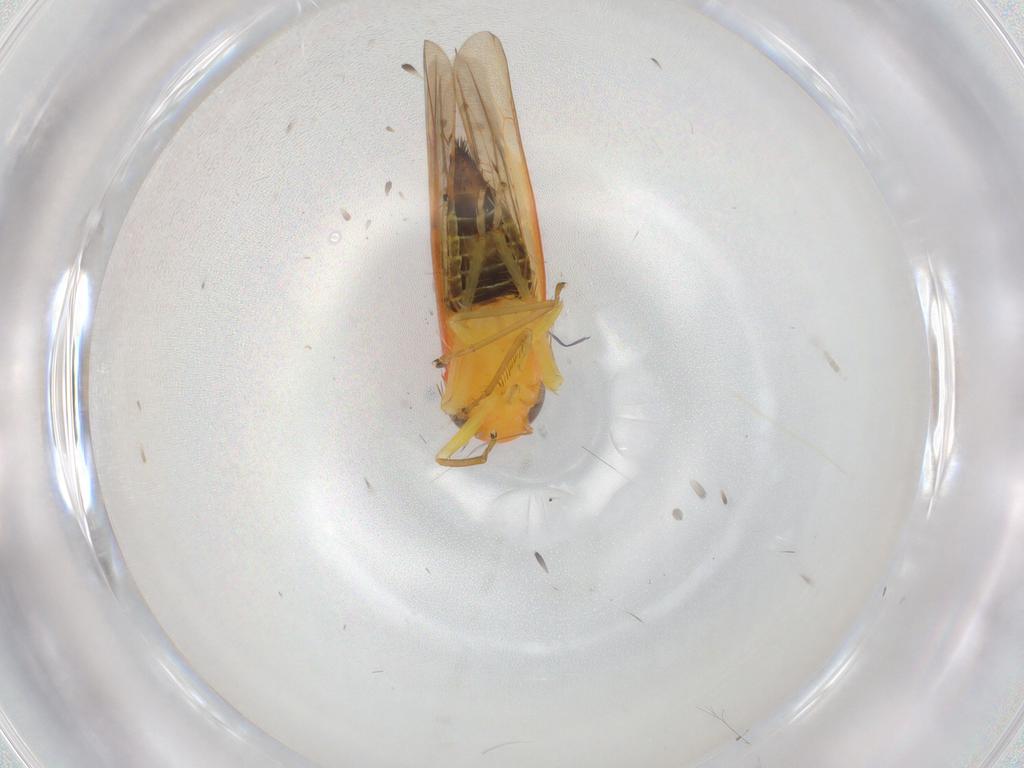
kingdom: Animalia
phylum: Arthropoda
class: Insecta
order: Hemiptera
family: Cicadellidae
